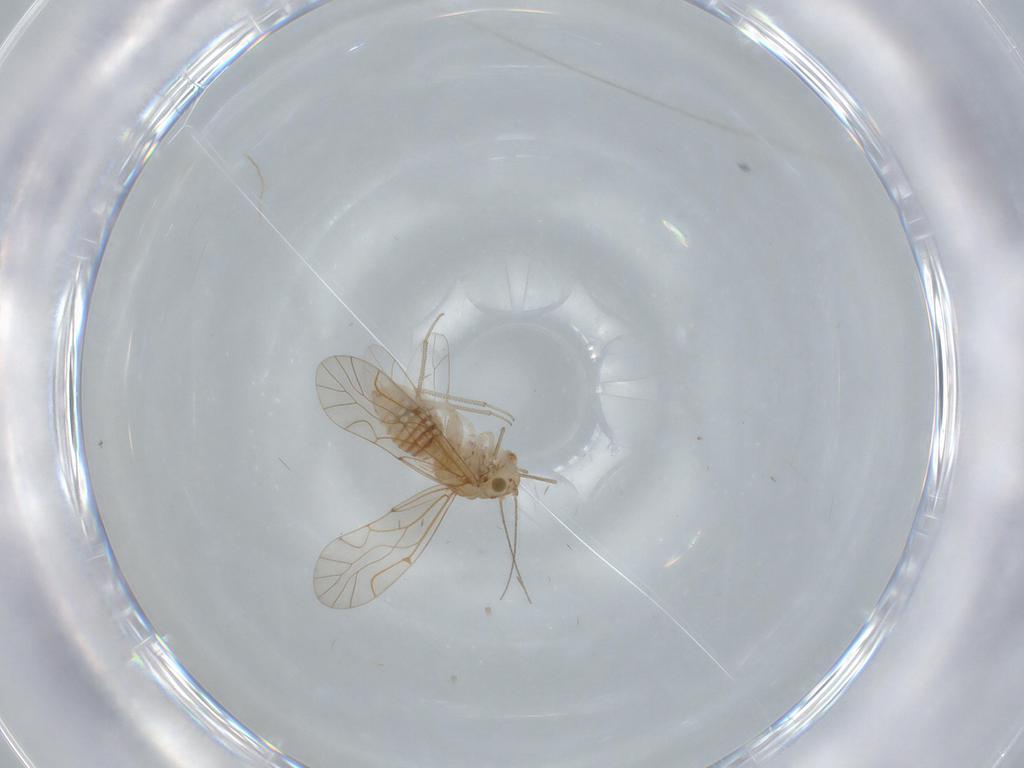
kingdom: Animalia
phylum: Arthropoda
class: Insecta
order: Psocodea
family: Lachesillidae
